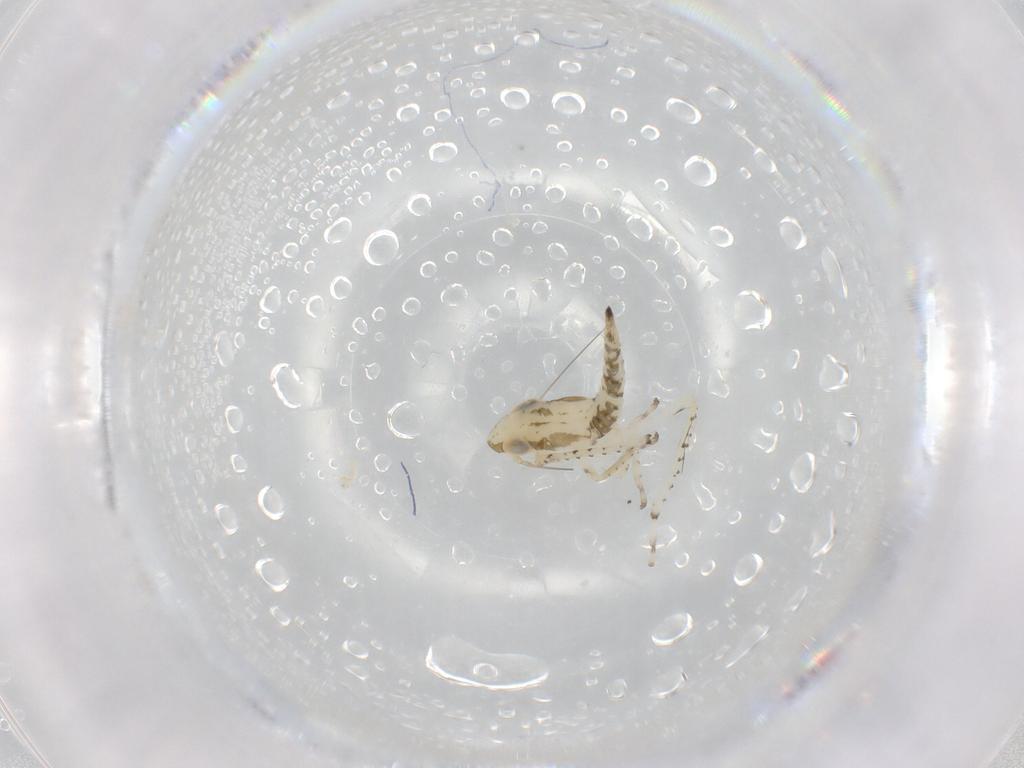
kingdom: Animalia
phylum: Arthropoda
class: Insecta
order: Hemiptera
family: Cicadellidae
